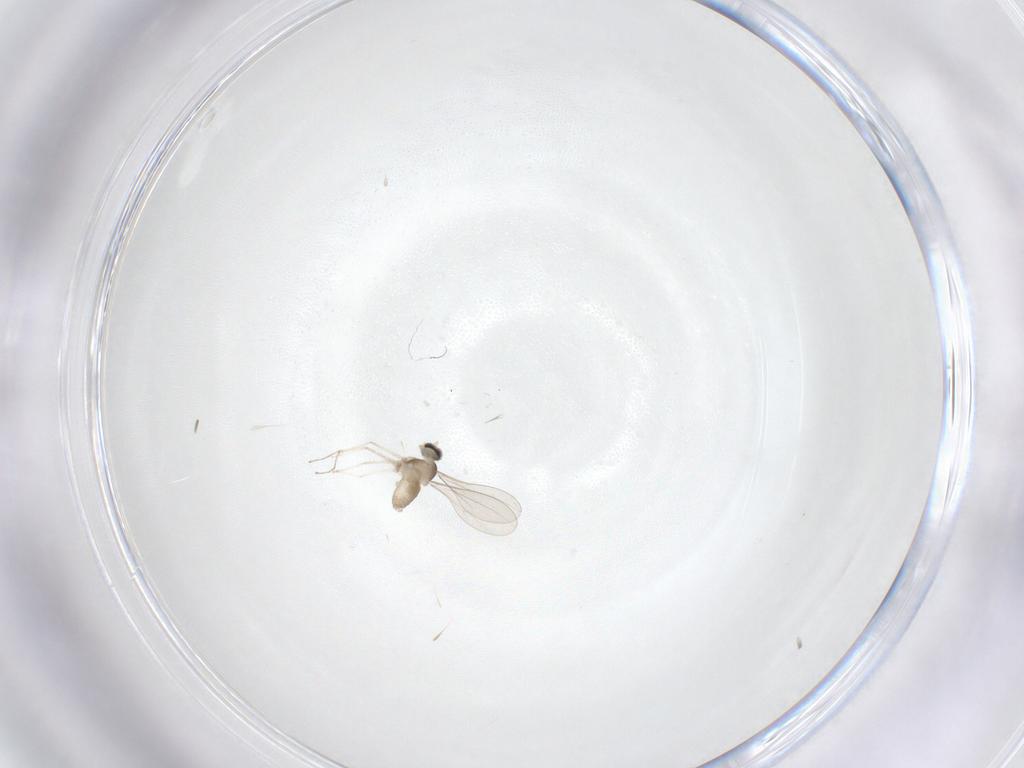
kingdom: Animalia
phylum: Arthropoda
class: Insecta
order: Diptera
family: Cecidomyiidae
